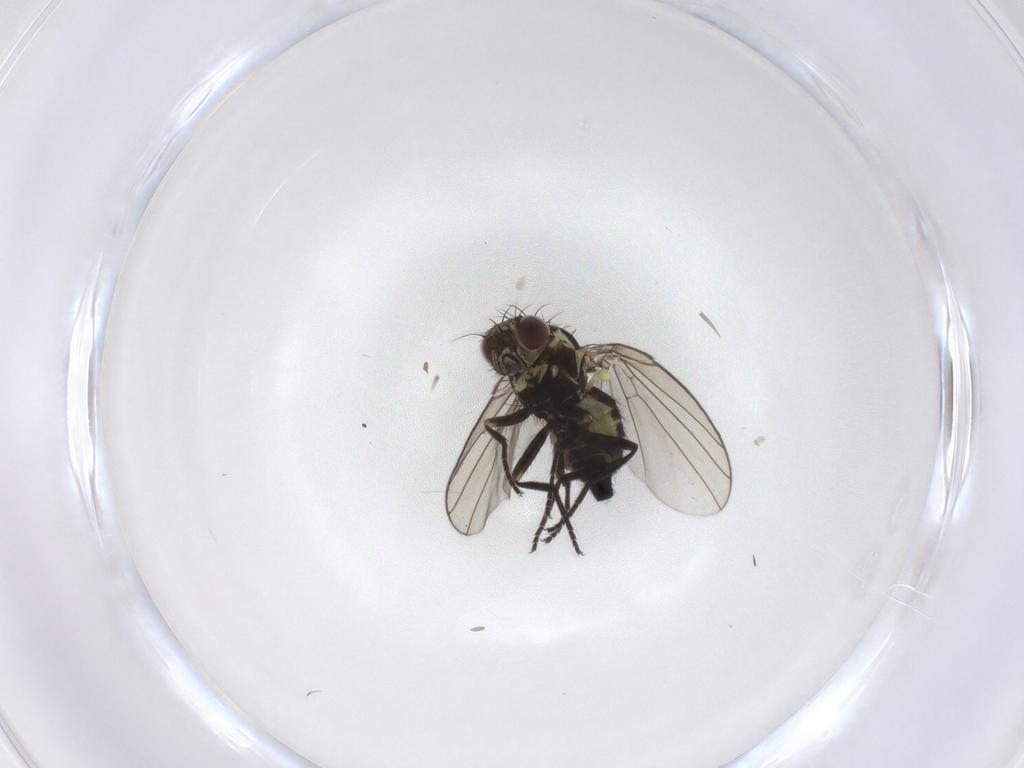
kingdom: Animalia
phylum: Arthropoda
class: Insecta
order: Diptera
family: Agromyzidae
